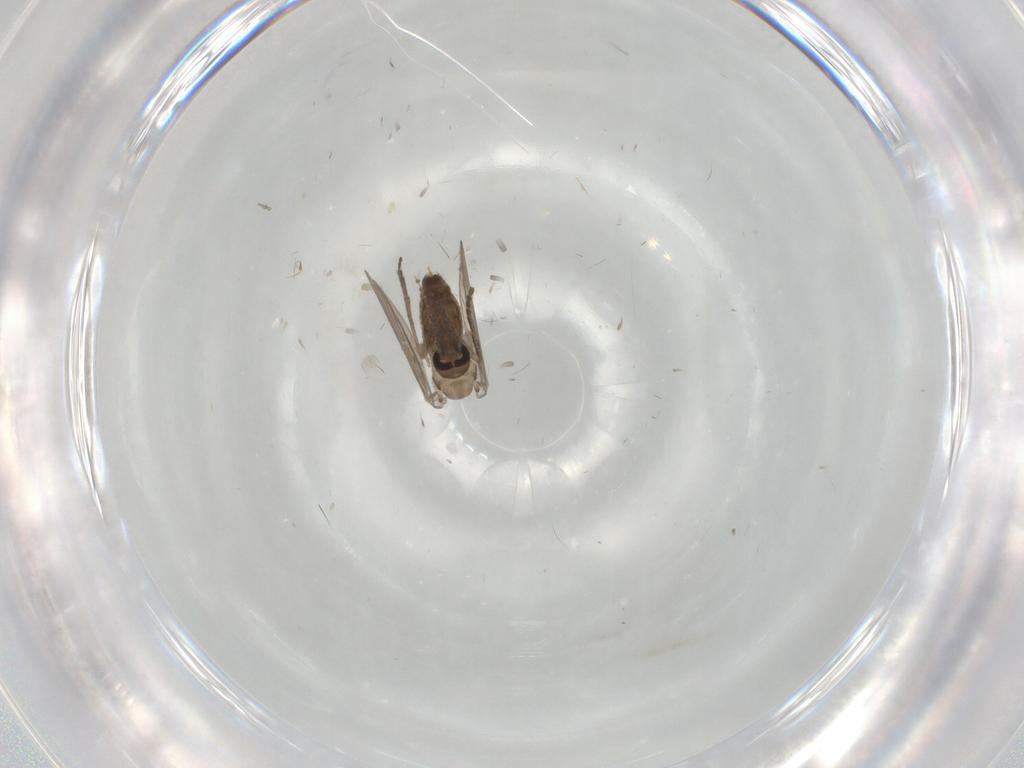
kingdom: Animalia
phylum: Arthropoda
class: Insecta
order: Diptera
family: Psychodidae
